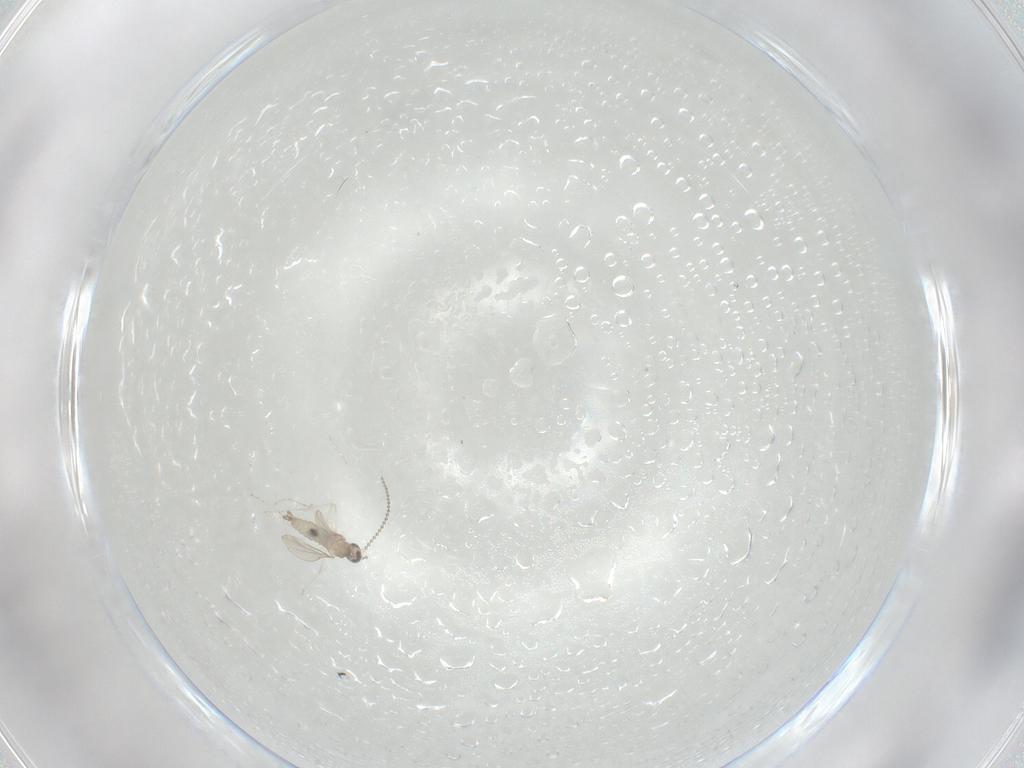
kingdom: Animalia
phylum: Arthropoda
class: Insecta
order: Diptera
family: Cecidomyiidae
